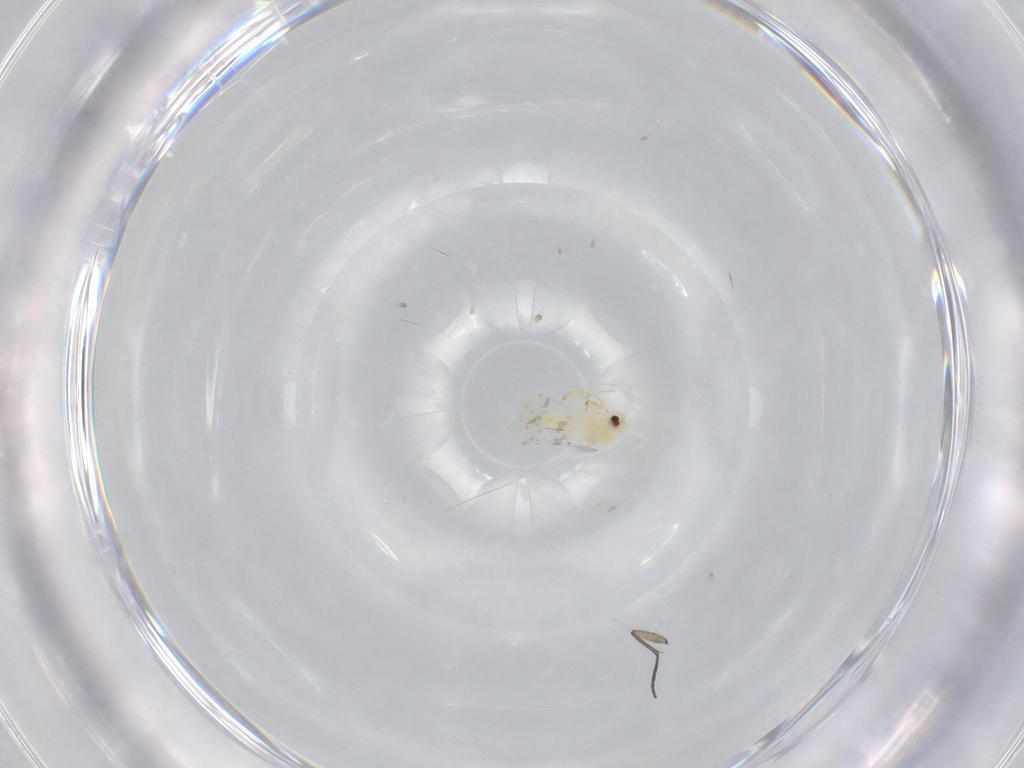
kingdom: Animalia
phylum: Arthropoda
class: Insecta
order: Hemiptera
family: Aleyrodidae
